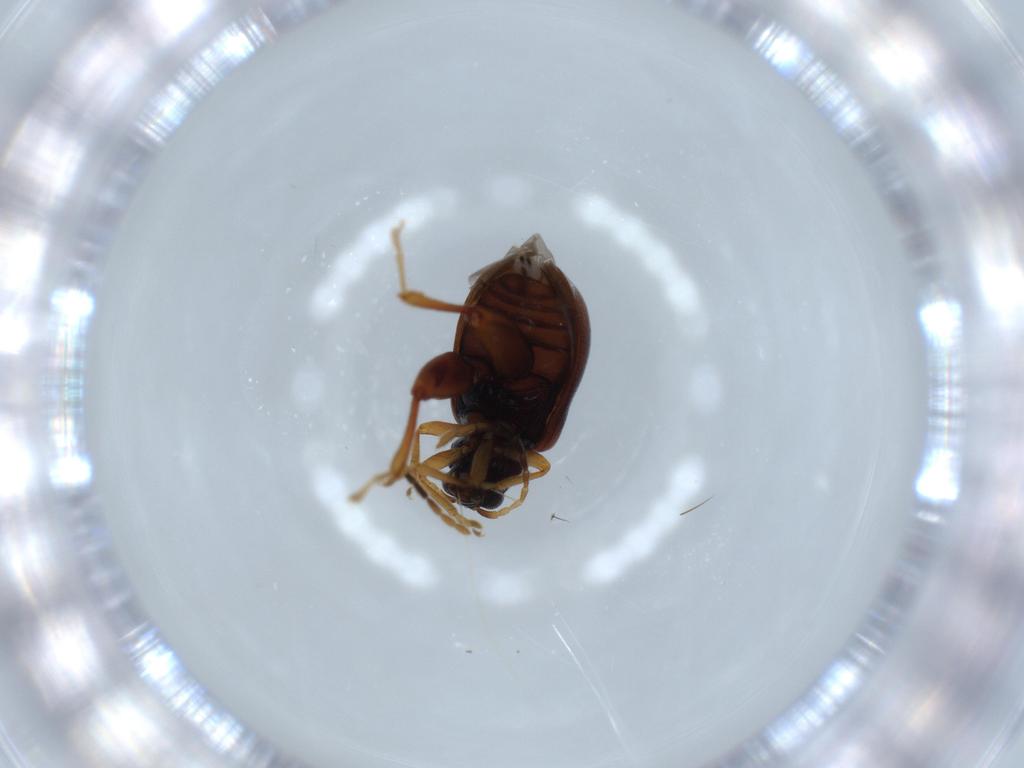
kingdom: Animalia
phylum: Arthropoda
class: Insecta
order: Coleoptera
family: Chrysomelidae
